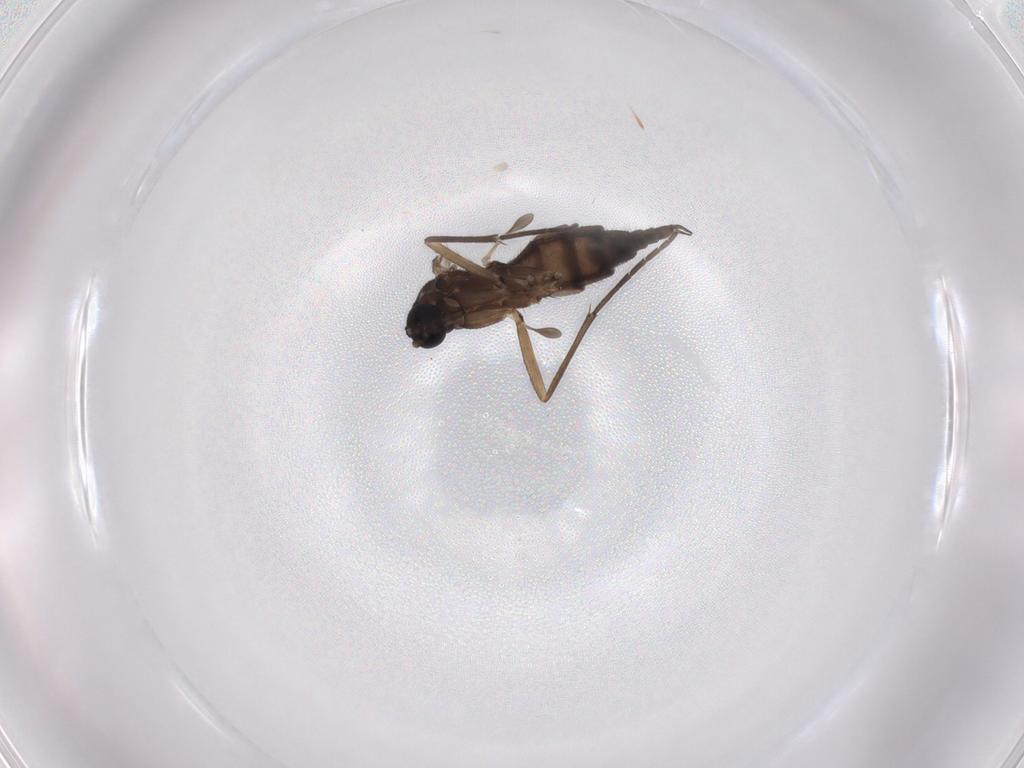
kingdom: Animalia
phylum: Arthropoda
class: Insecta
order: Diptera
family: Sciaridae
